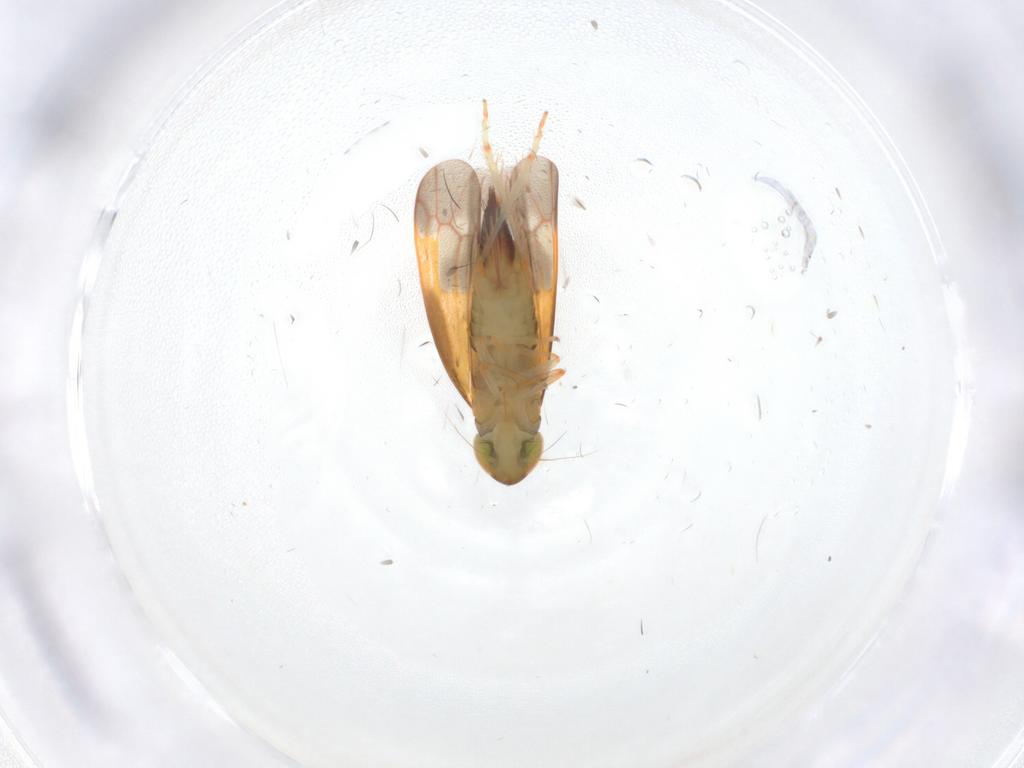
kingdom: Animalia
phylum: Arthropoda
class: Insecta
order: Hemiptera
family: Cicadellidae
